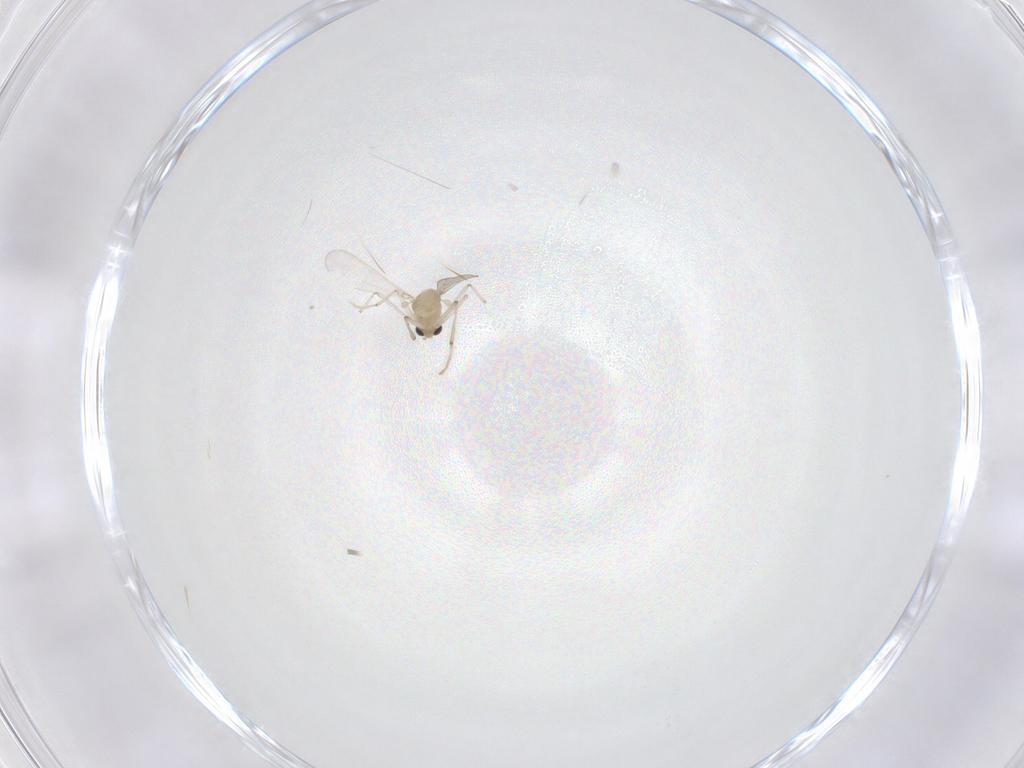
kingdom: Animalia
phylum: Arthropoda
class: Insecta
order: Diptera
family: Chironomidae
